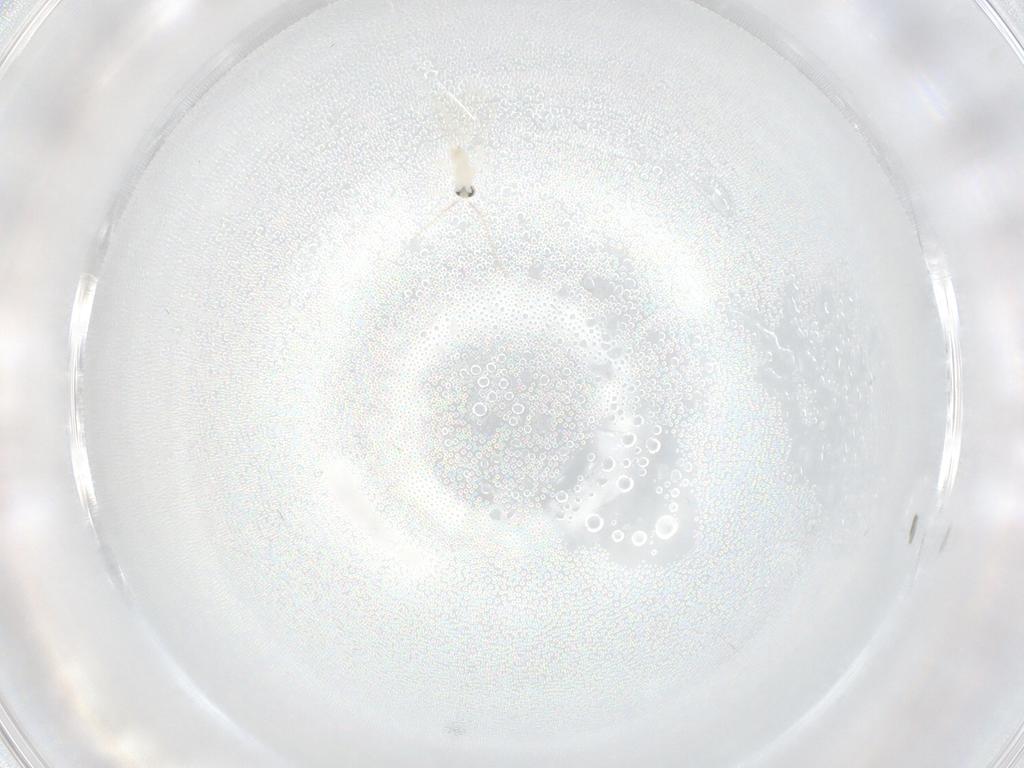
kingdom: Animalia
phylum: Arthropoda
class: Insecta
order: Diptera
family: Cecidomyiidae
